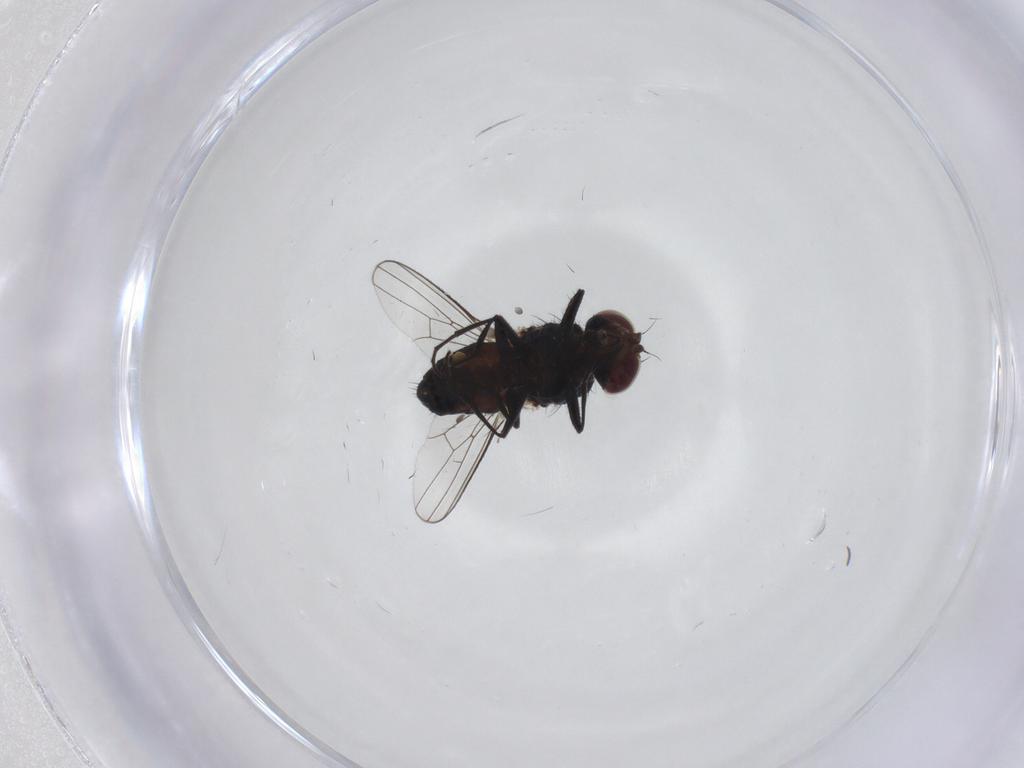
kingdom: Animalia
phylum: Arthropoda
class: Insecta
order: Diptera
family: Carnidae
